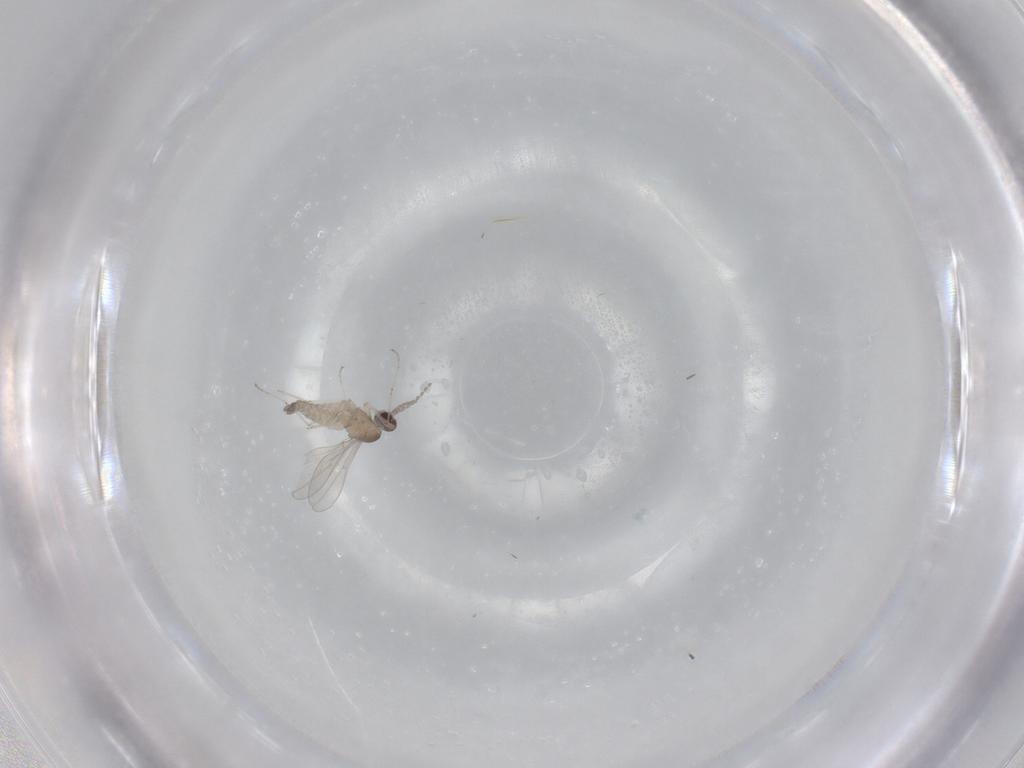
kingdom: Animalia
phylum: Arthropoda
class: Insecta
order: Diptera
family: Cecidomyiidae
